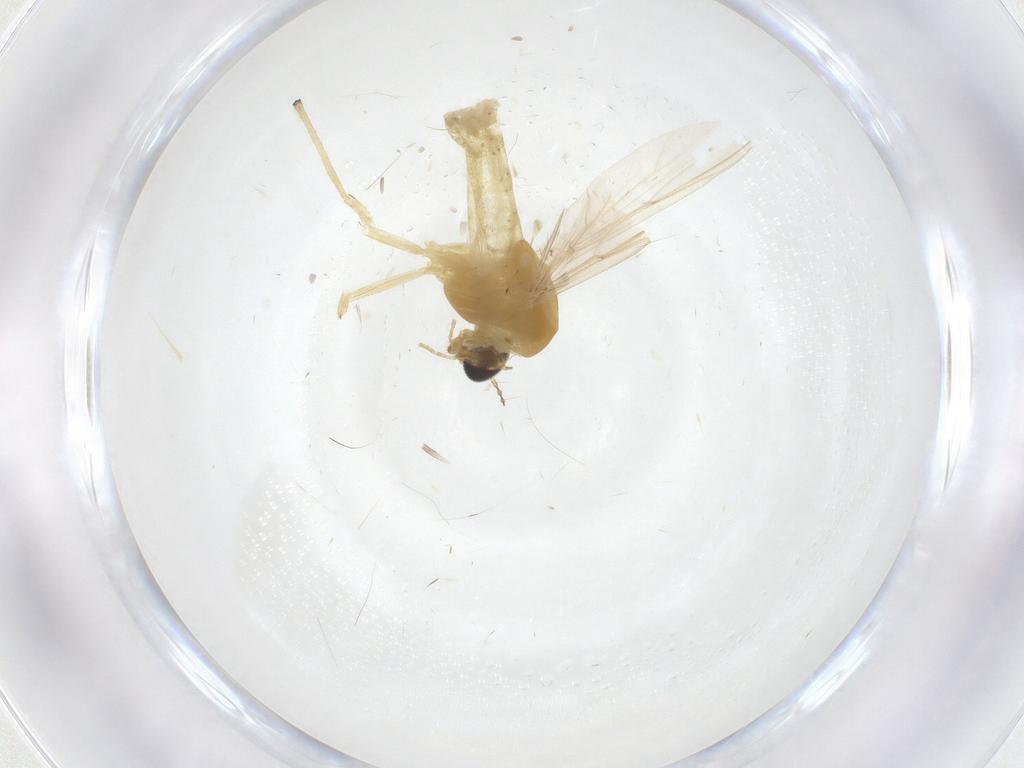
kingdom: Animalia
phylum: Arthropoda
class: Insecta
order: Diptera
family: Chironomidae
